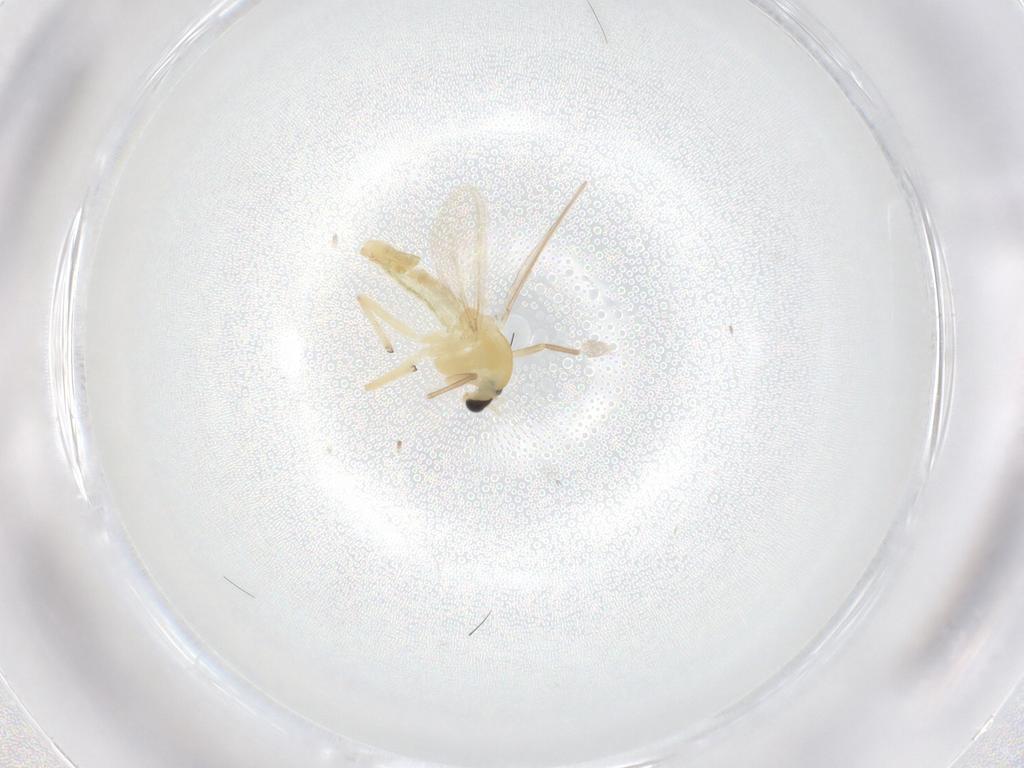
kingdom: Animalia
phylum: Arthropoda
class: Insecta
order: Diptera
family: Chironomidae
